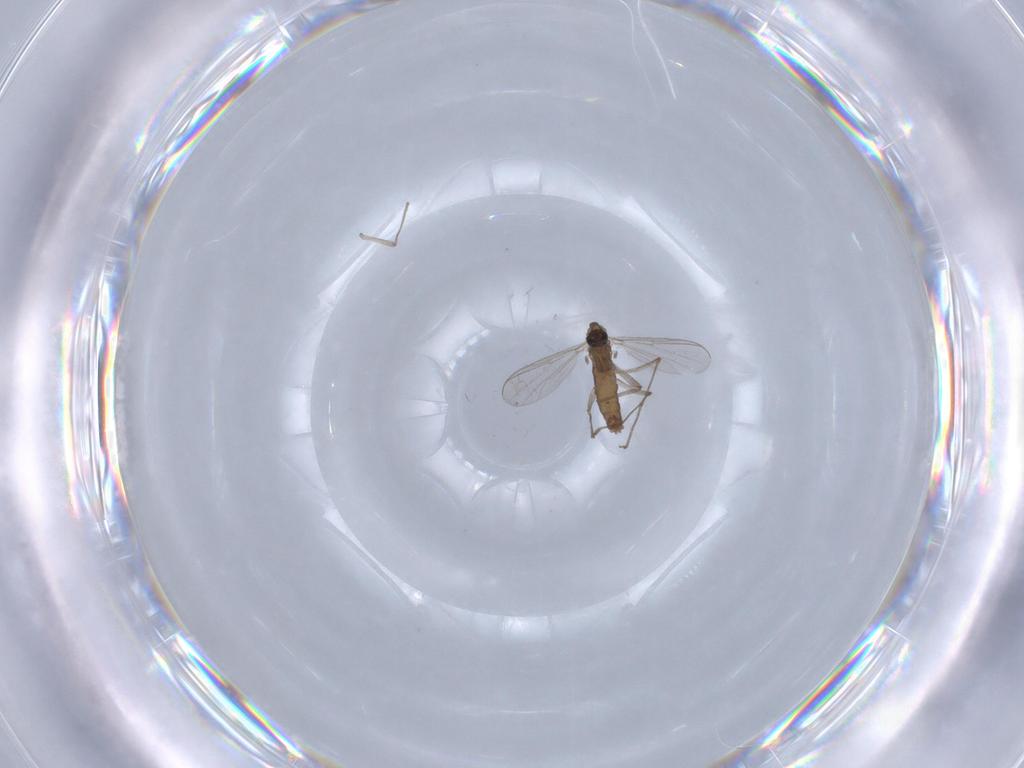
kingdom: Animalia
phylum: Arthropoda
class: Insecta
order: Diptera
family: Chironomidae
